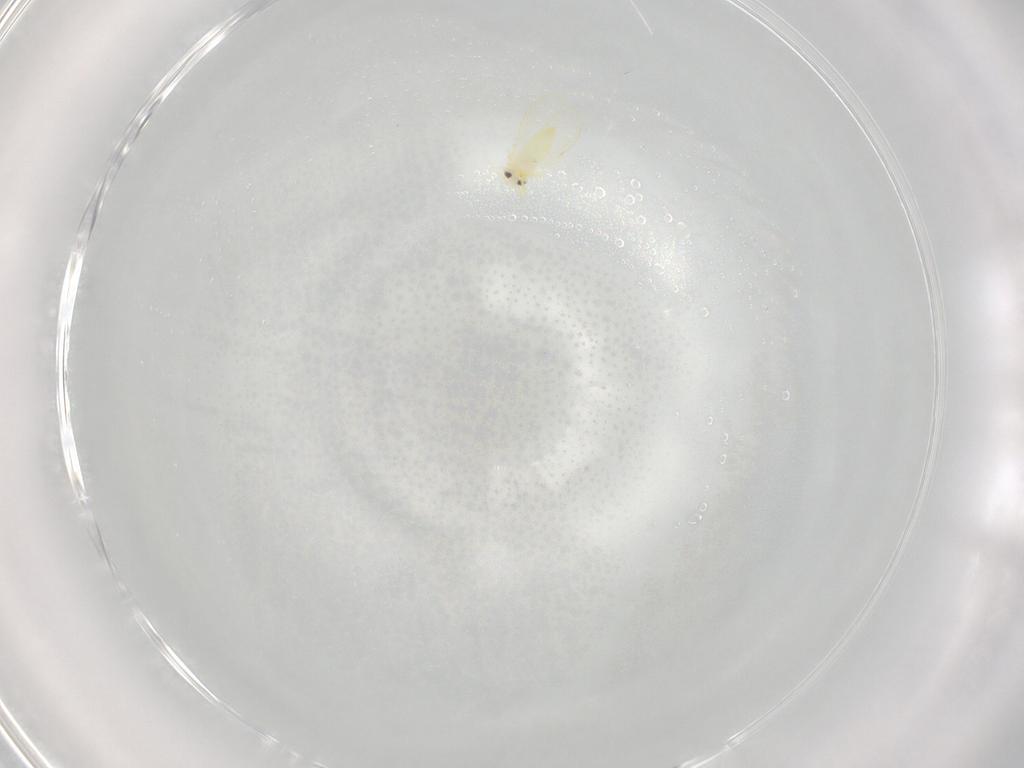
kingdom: Animalia
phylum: Arthropoda
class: Insecta
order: Hemiptera
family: Aleyrodidae
